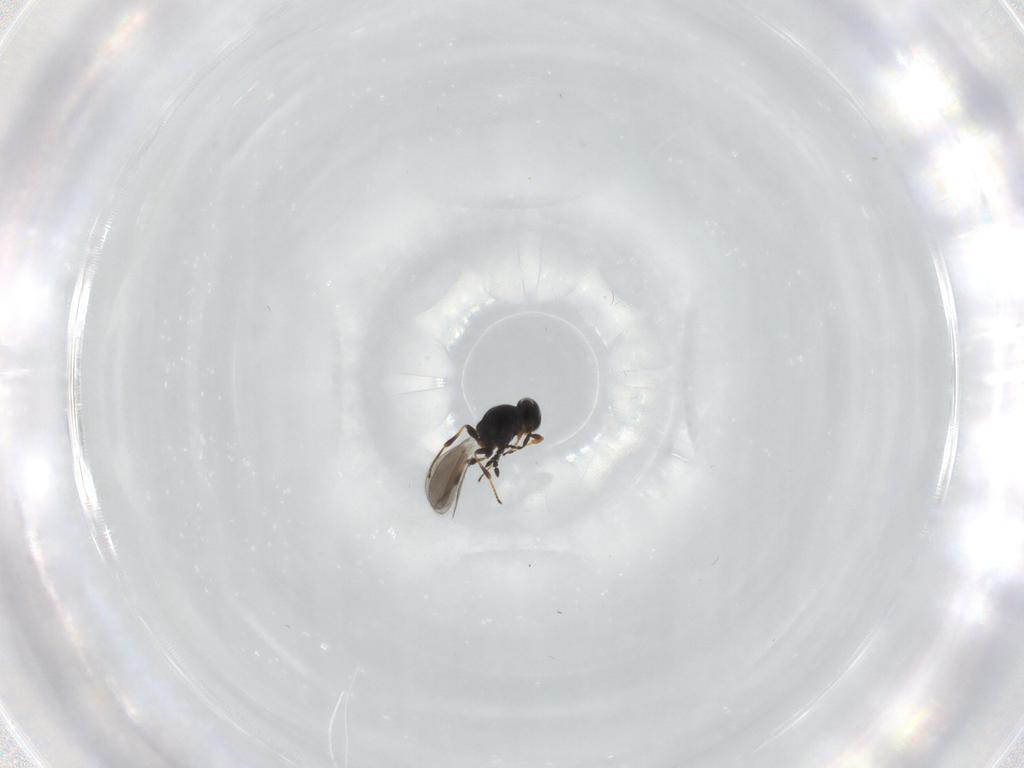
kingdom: Animalia
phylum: Arthropoda
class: Insecta
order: Hymenoptera
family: Platygastridae
